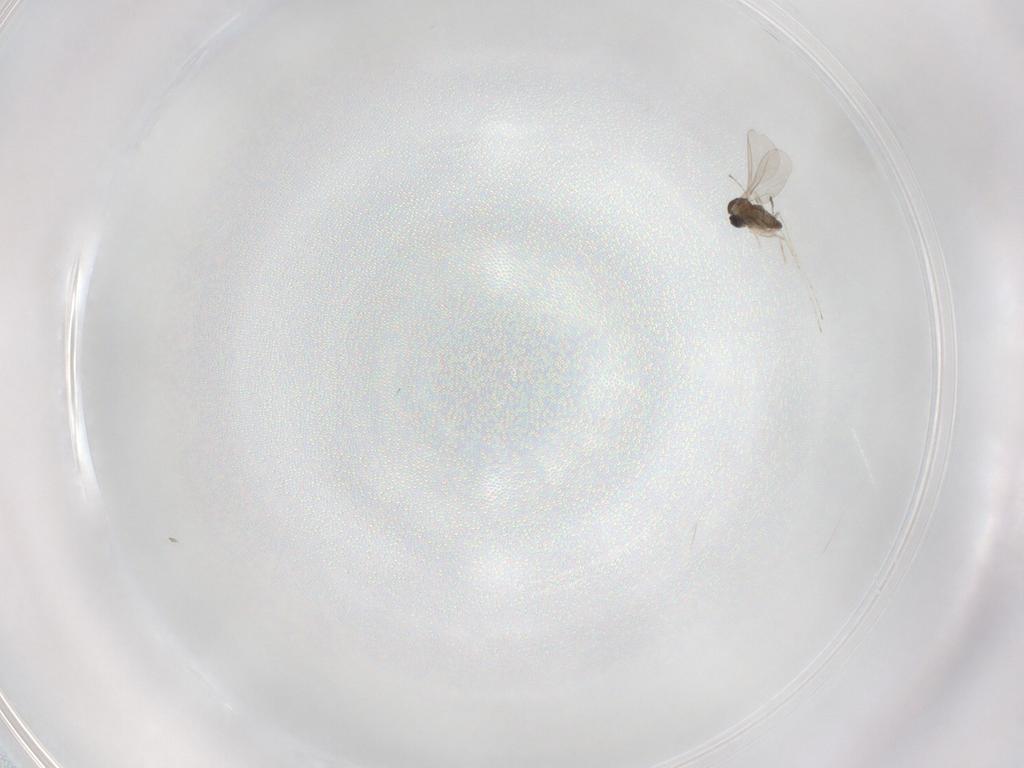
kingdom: Animalia
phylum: Arthropoda
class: Insecta
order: Diptera
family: Cecidomyiidae
